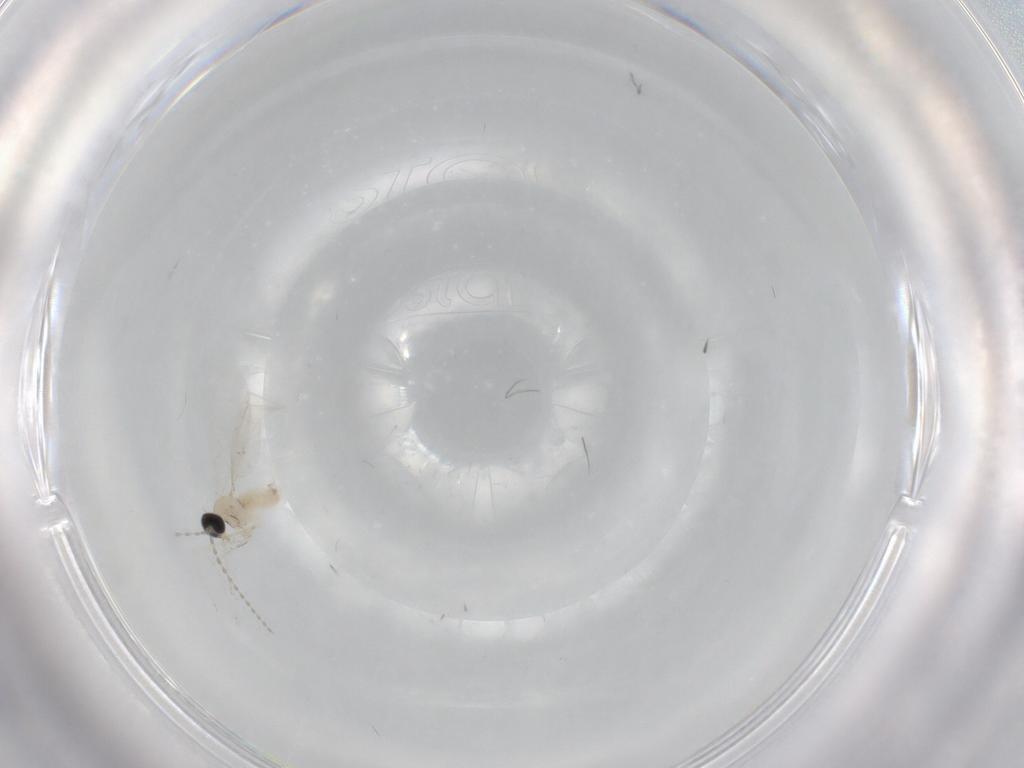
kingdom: Animalia
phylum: Arthropoda
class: Insecta
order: Diptera
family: Cecidomyiidae
